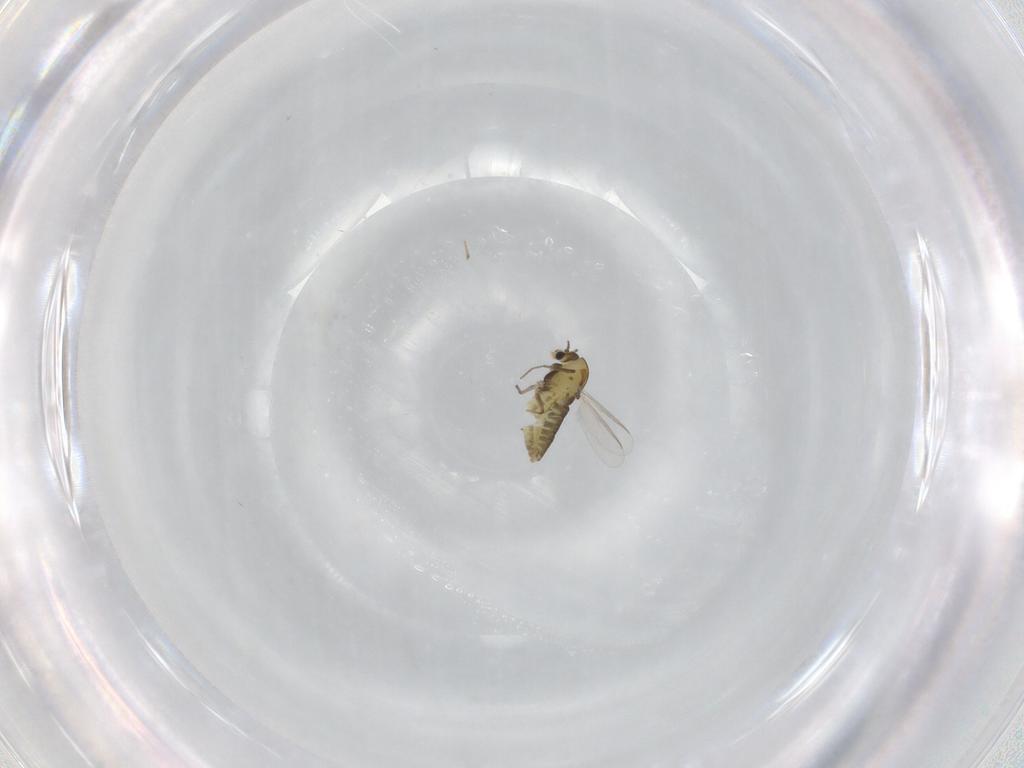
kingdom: Animalia
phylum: Arthropoda
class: Insecta
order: Diptera
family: Chironomidae
